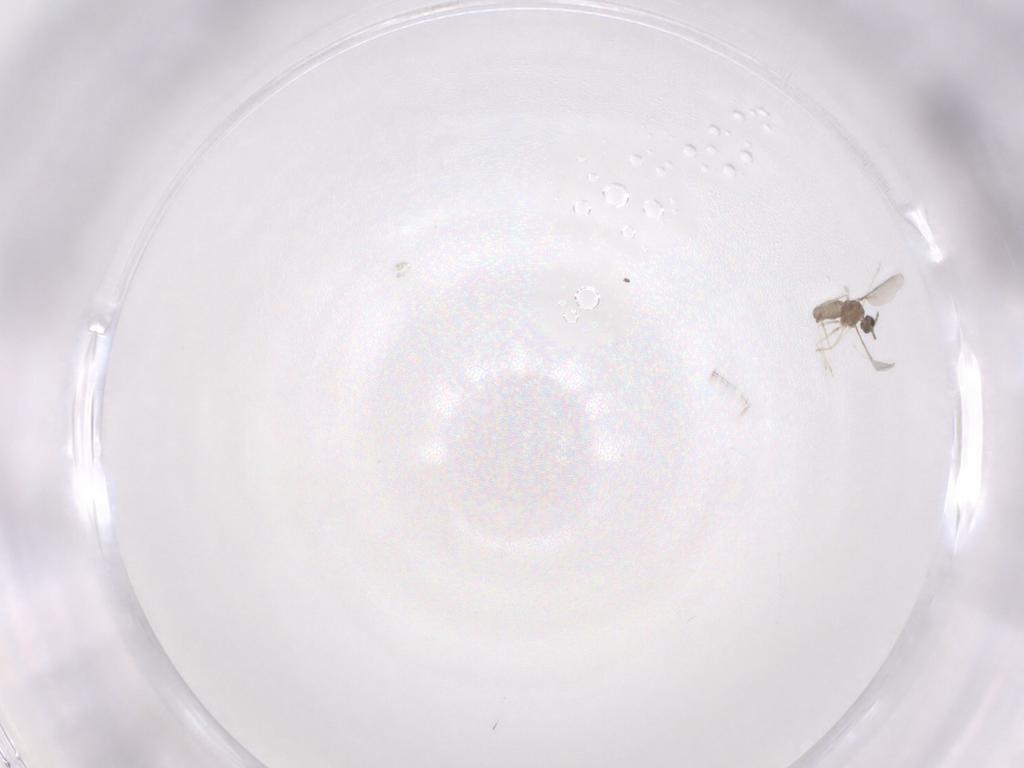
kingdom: Animalia
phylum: Arthropoda
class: Insecta
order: Diptera
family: Cecidomyiidae
